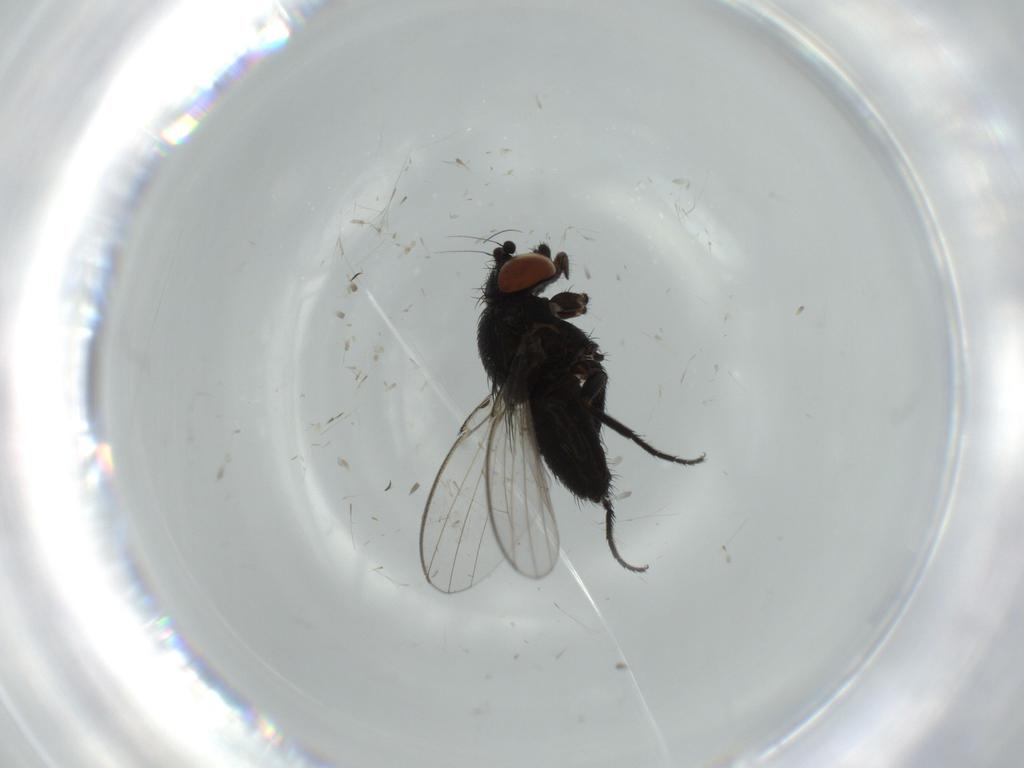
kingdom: Animalia
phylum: Arthropoda
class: Insecta
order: Diptera
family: Milichiidae
